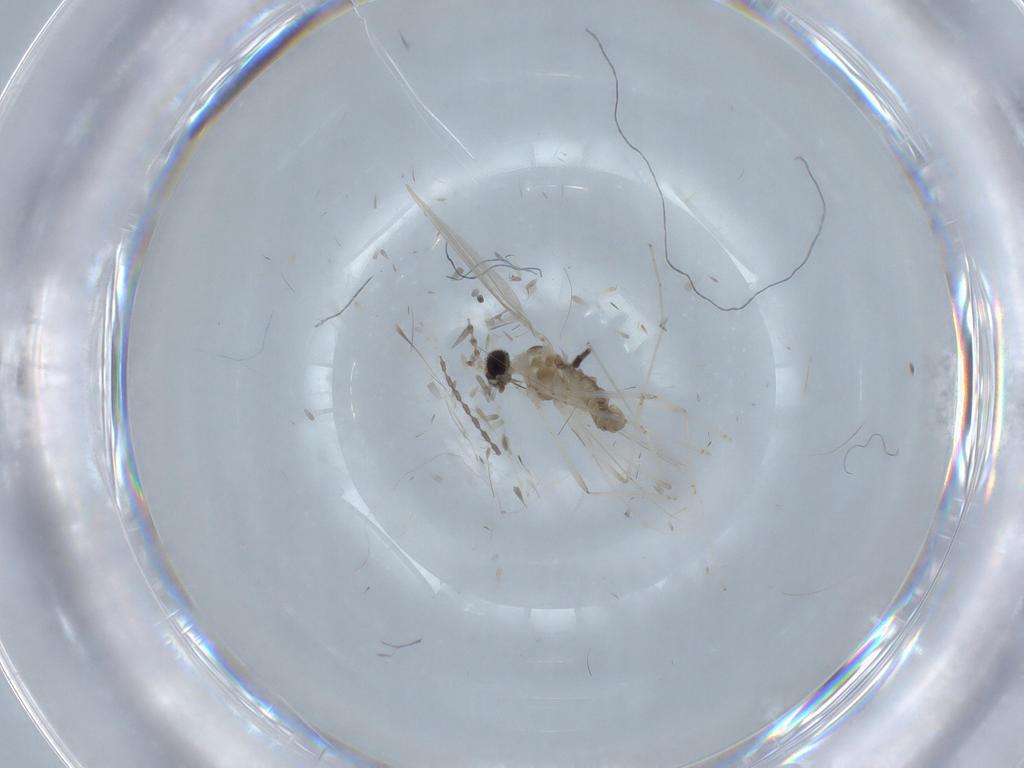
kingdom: Animalia
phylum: Arthropoda
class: Insecta
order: Diptera
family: Cecidomyiidae
